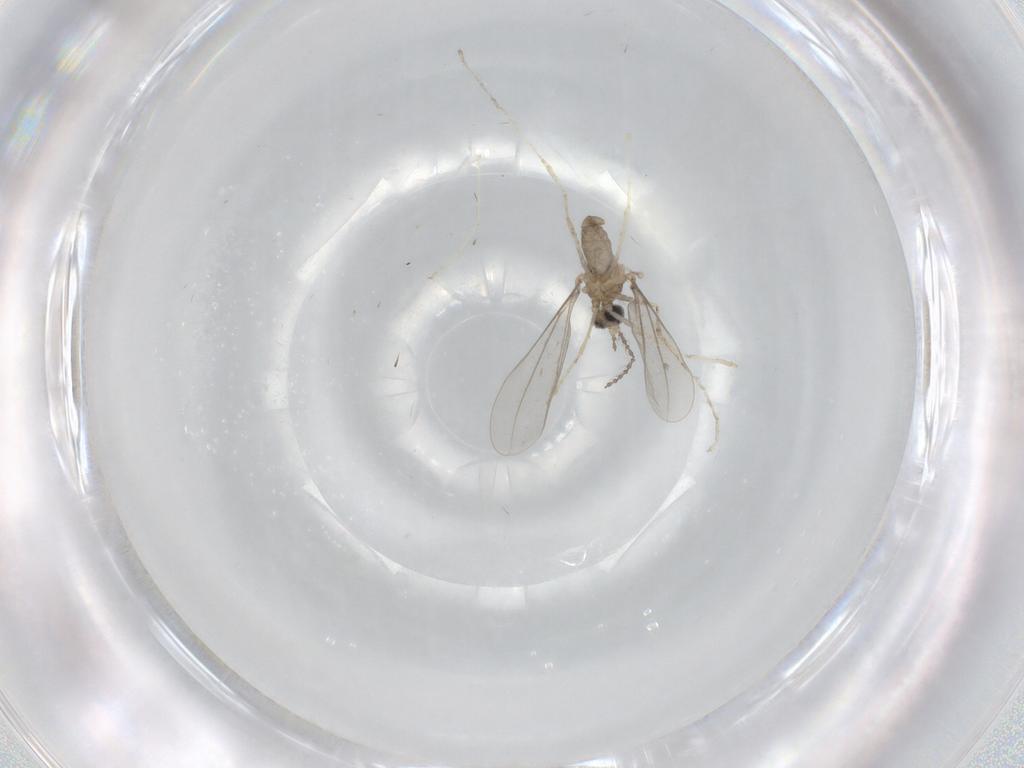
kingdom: Animalia
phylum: Arthropoda
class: Insecta
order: Diptera
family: Cecidomyiidae
